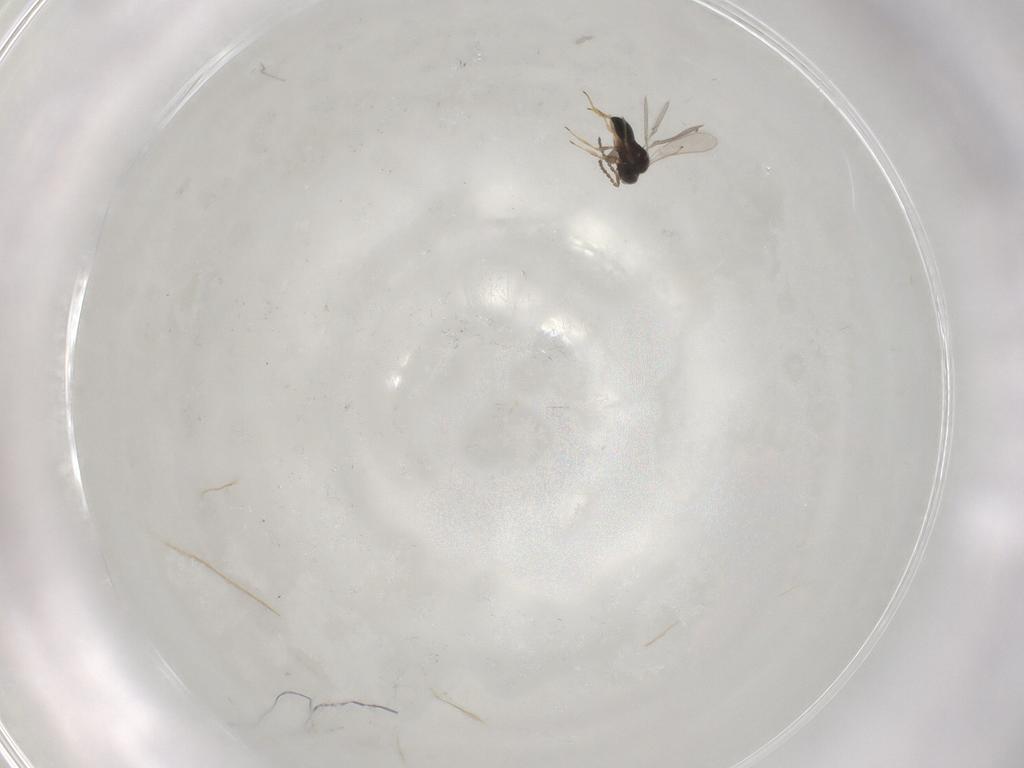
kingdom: Animalia
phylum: Arthropoda
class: Insecta
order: Hymenoptera
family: Scelionidae
